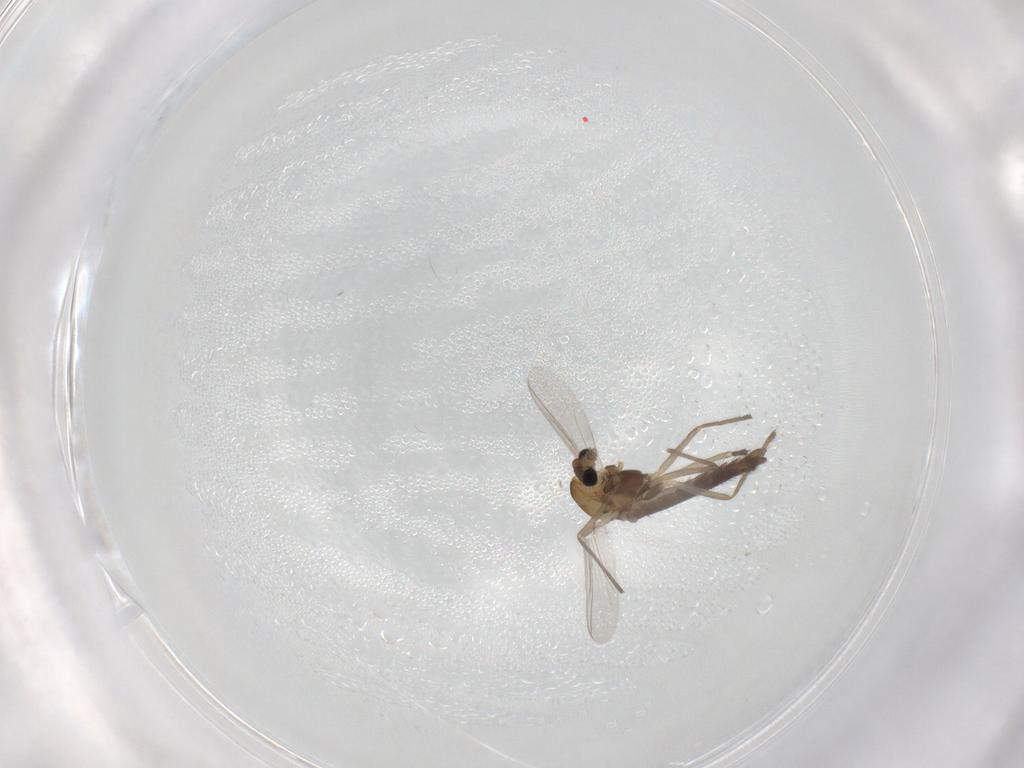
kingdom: Animalia
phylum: Arthropoda
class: Insecta
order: Diptera
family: Chironomidae
